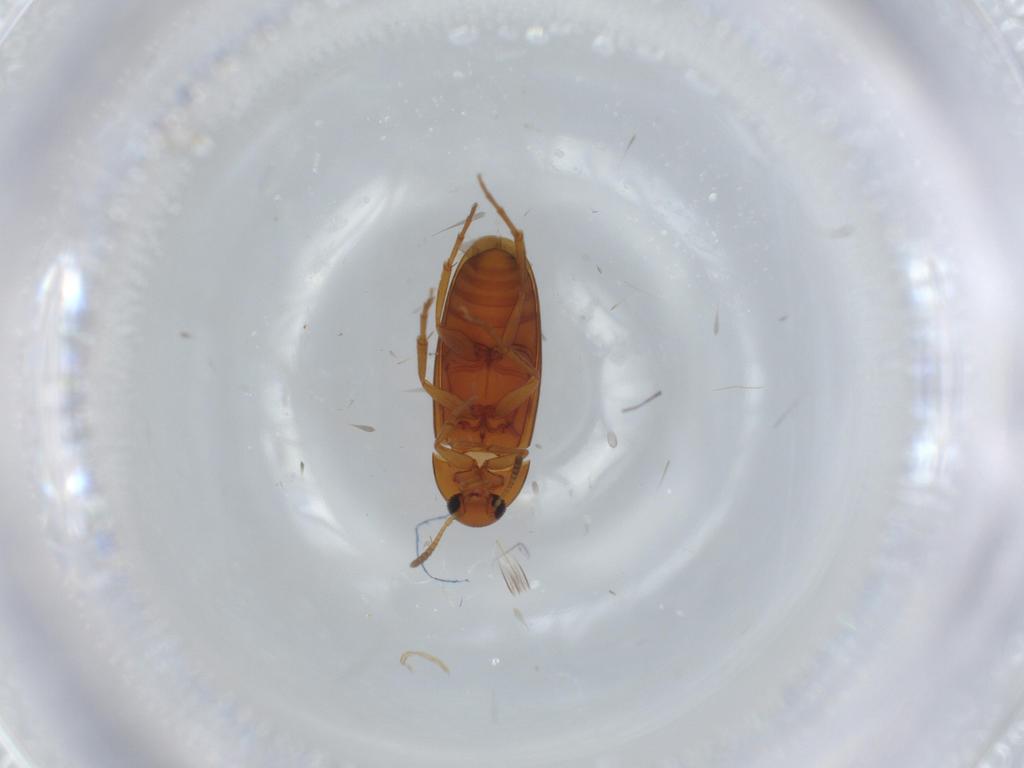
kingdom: Animalia
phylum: Arthropoda
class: Insecta
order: Coleoptera
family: Scraptiidae
